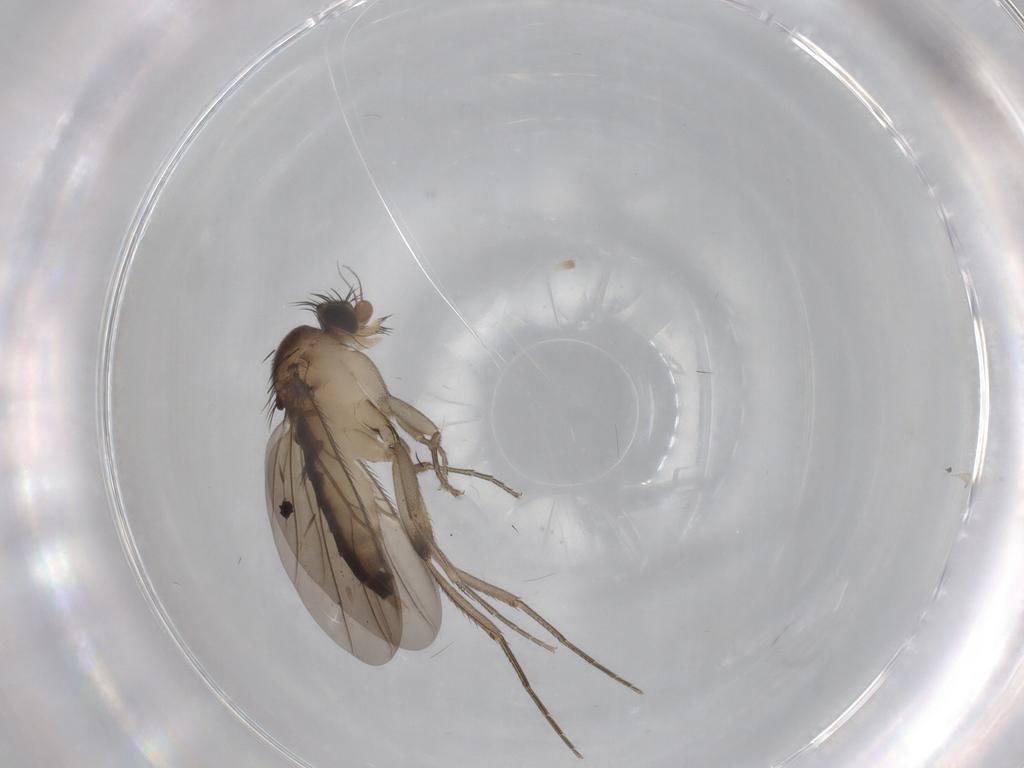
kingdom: Animalia
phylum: Arthropoda
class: Insecta
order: Diptera
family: Phoridae
